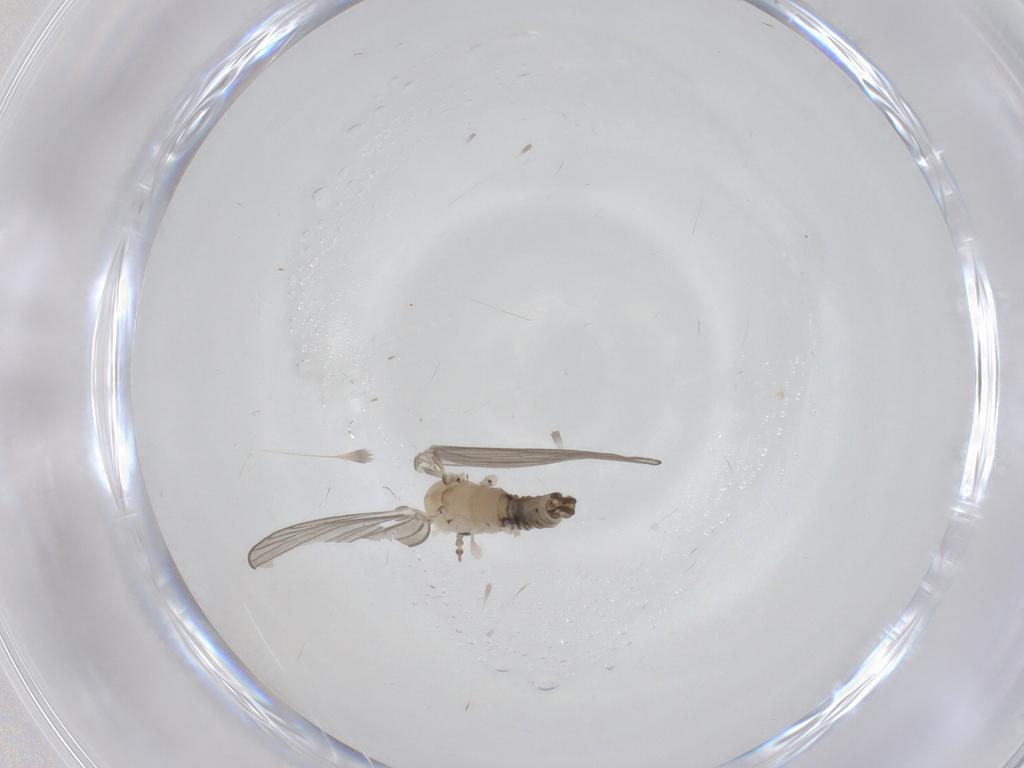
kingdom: Animalia
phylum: Arthropoda
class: Insecta
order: Diptera
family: Psychodidae
